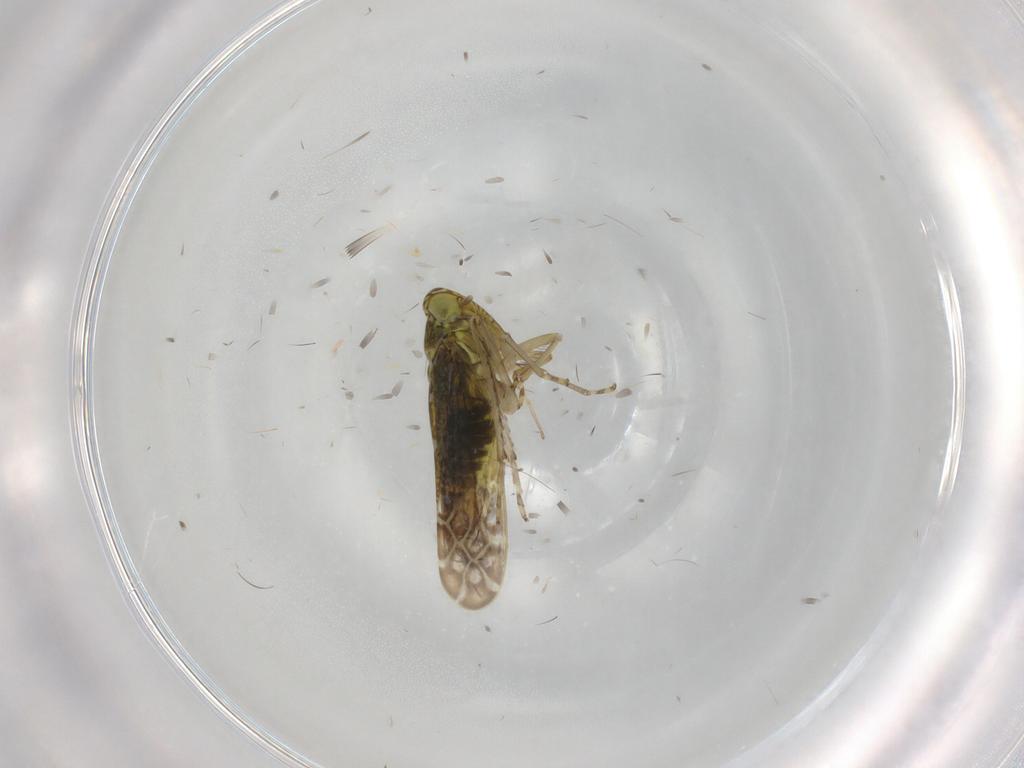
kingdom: Animalia
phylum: Arthropoda
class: Insecta
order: Hemiptera
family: Cicadellidae
